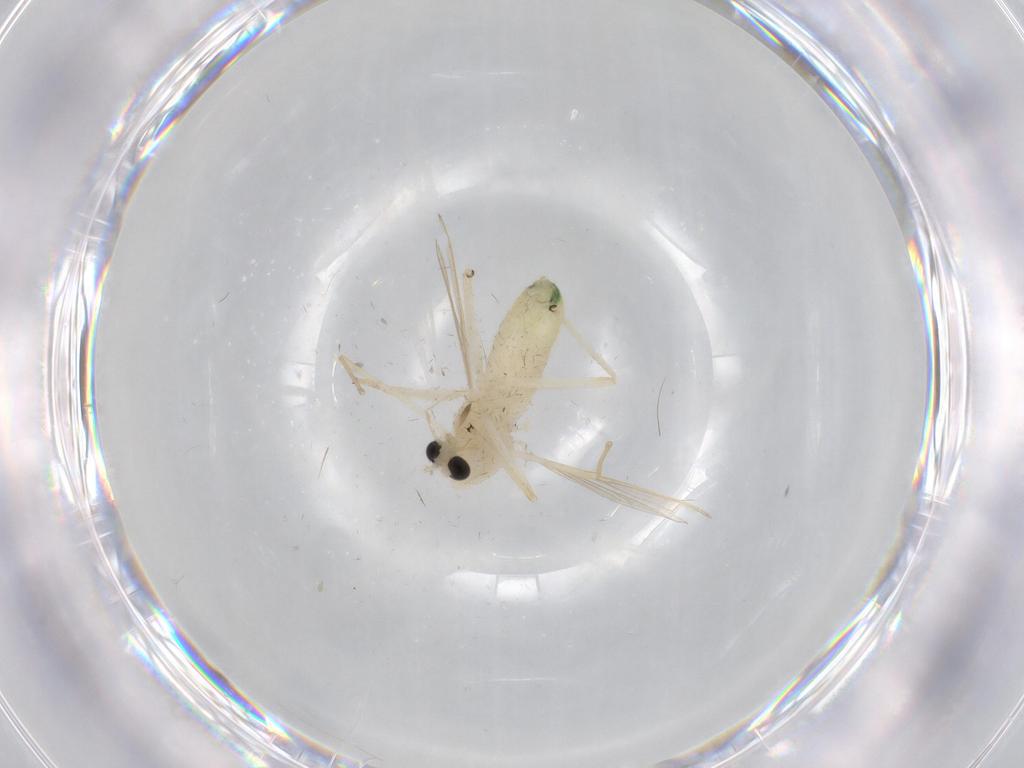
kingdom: Animalia
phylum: Arthropoda
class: Insecta
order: Diptera
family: Chironomidae
